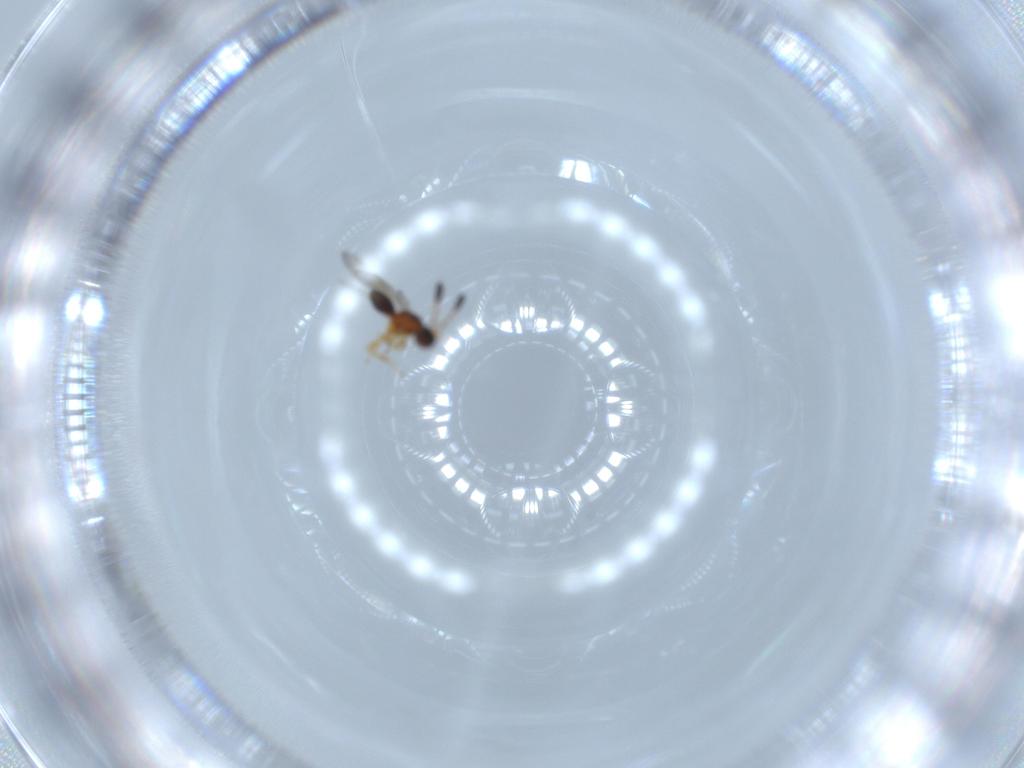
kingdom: Animalia
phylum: Arthropoda
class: Insecta
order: Hymenoptera
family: Diapriidae
